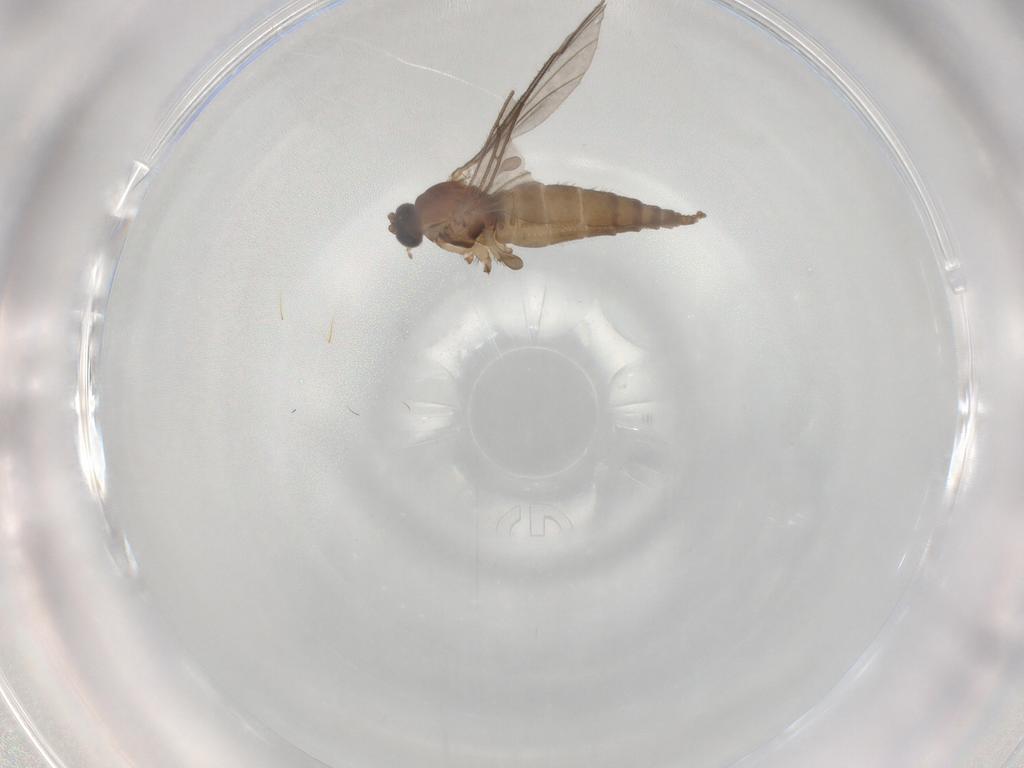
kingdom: Animalia
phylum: Arthropoda
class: Insecta
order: Diptera
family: Sciaridae
